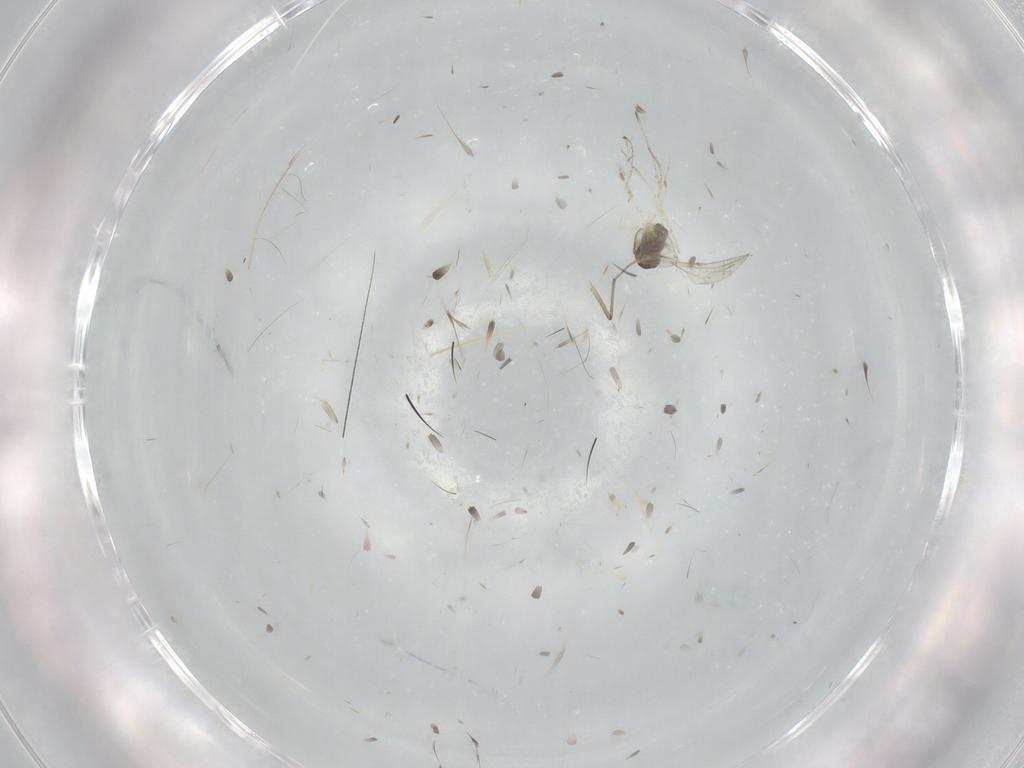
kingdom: Animalia
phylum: Arthropoda
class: Insecta
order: Diptera
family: Cecidomyiidae
